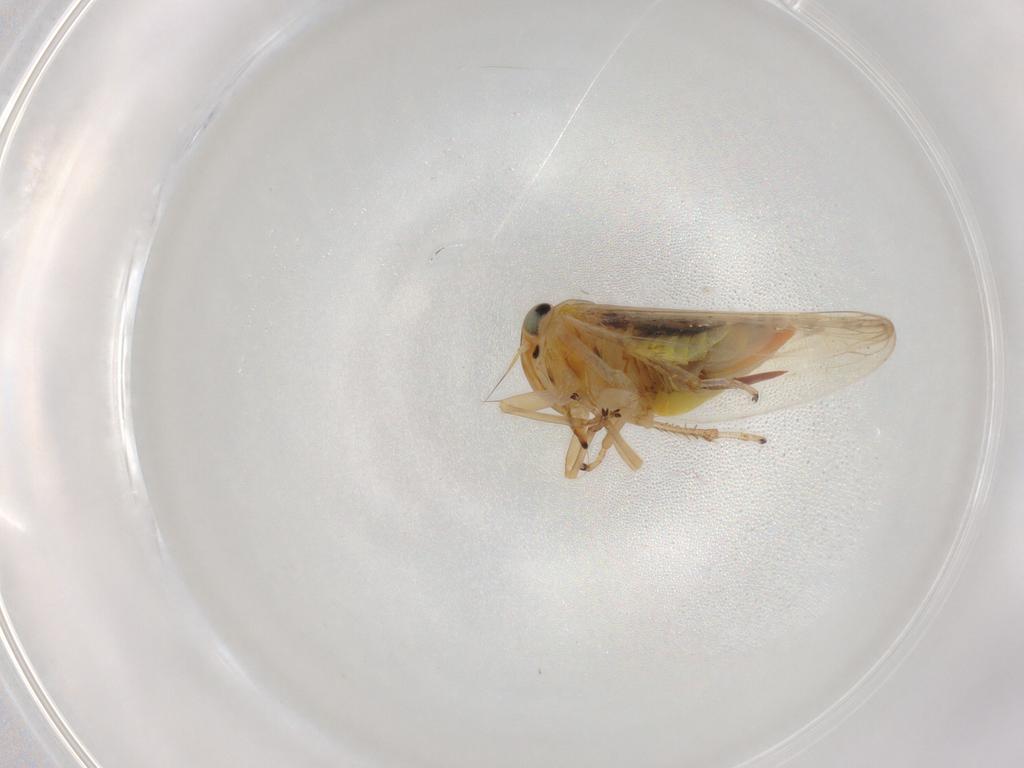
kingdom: Animalia
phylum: Arthropoda
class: Insecta
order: Hemiptera
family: Cicadellidae
